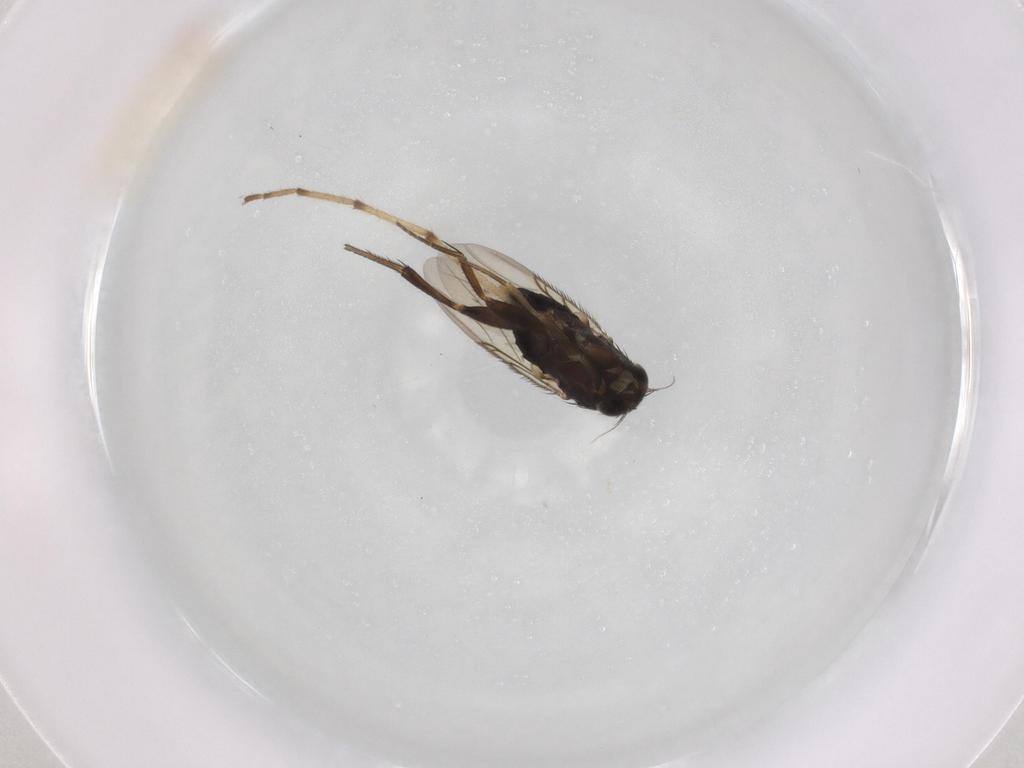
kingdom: Animalia
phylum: Arthropoda
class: Insecta
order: Diptera
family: Phoridae
